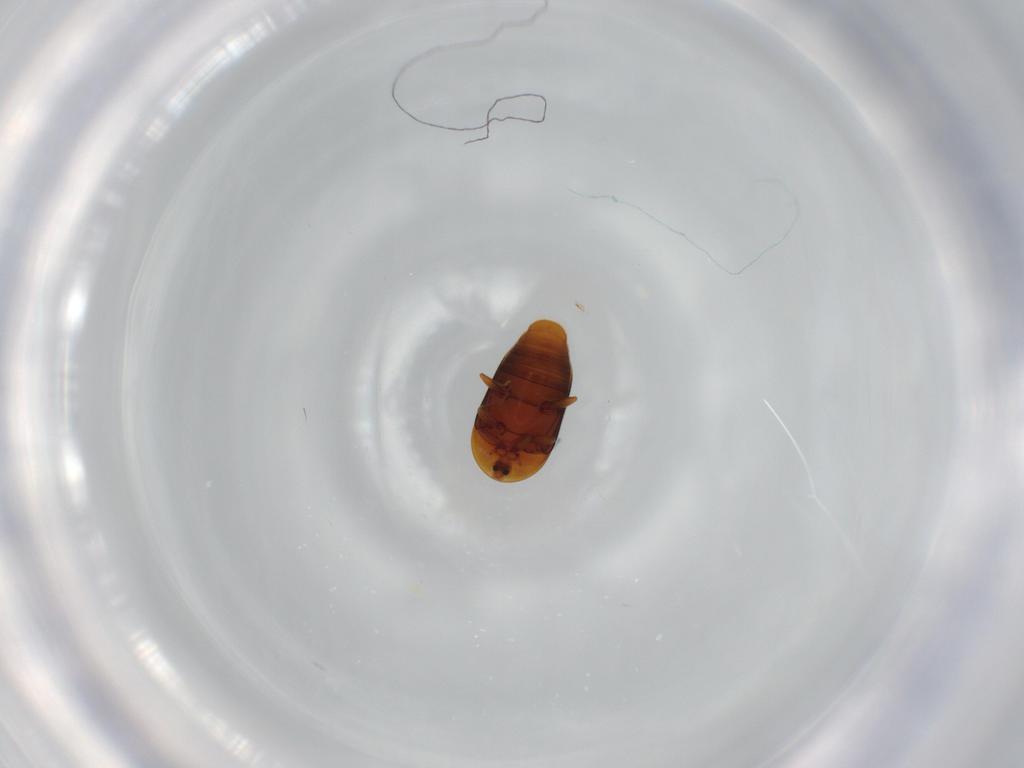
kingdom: Animalia
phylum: Arthropoda
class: Insecta
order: Coleoptera
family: Corylophidae
